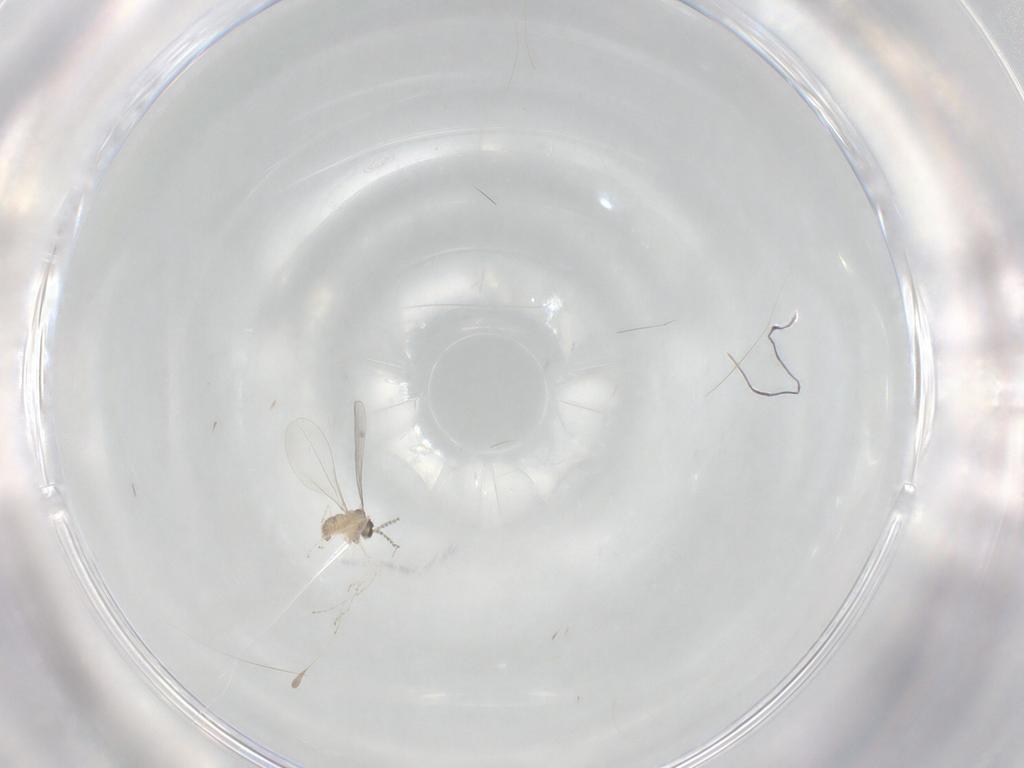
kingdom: Animalia
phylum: Arthropoda
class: Insecta
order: Diptera
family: Cecidomyiidae
